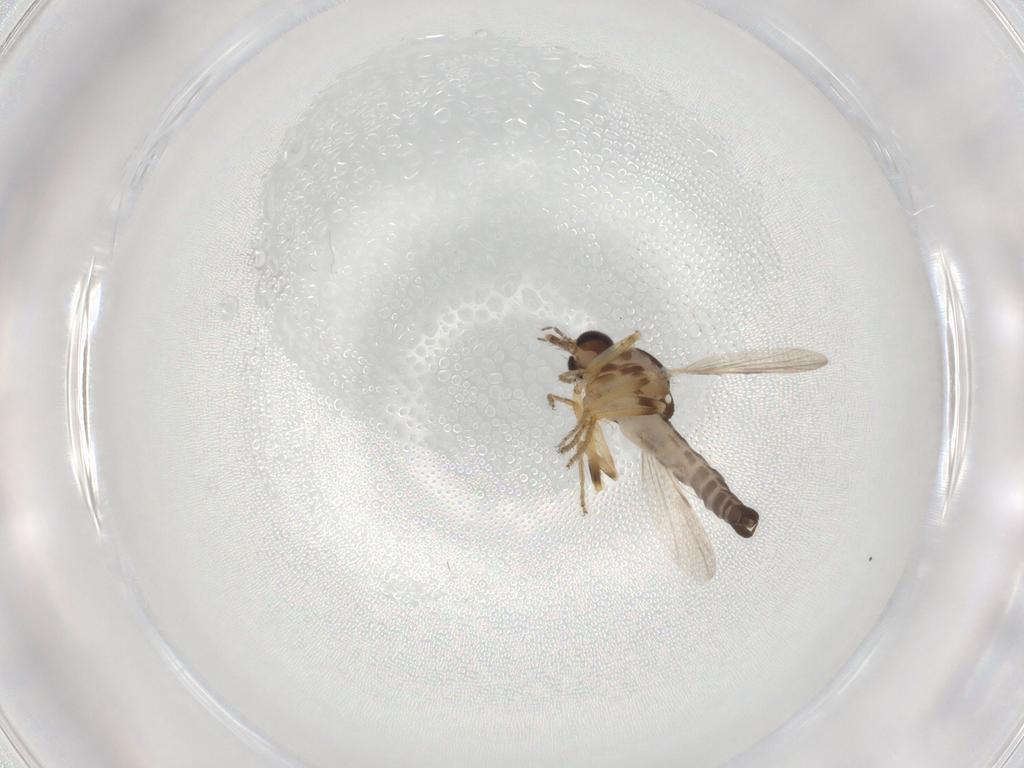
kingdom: Animalia
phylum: Arthropoda
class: Insecta
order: Diptera
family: Ceratopogonidae
